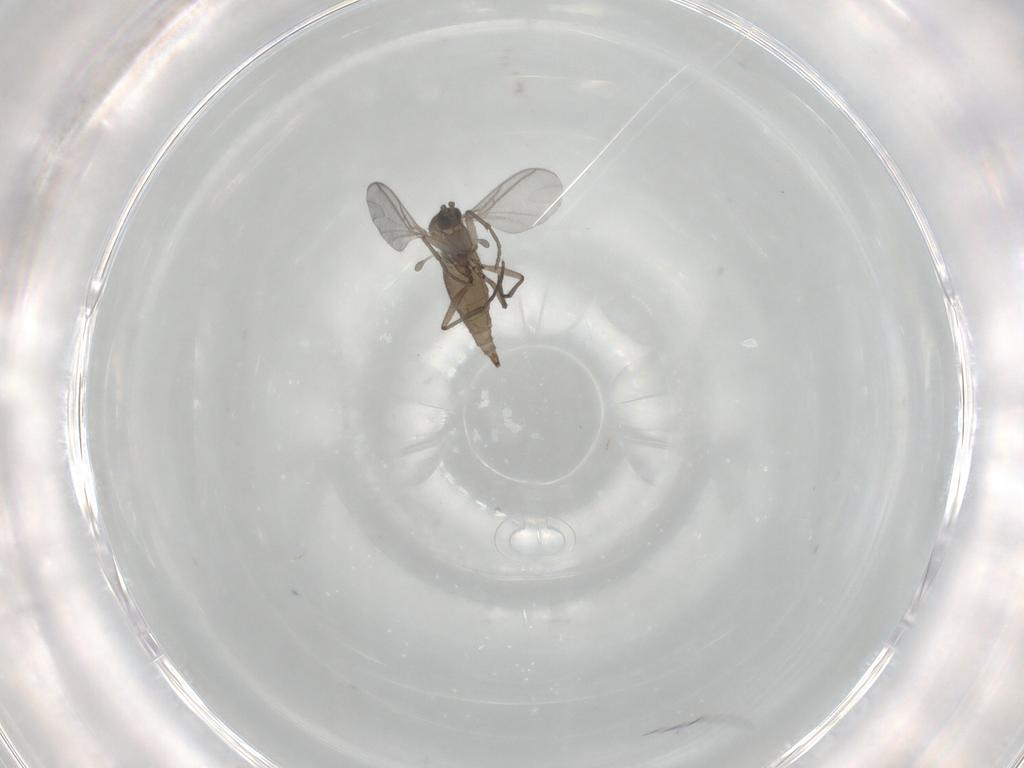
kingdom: Animalia
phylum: Arthropoda
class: Insecta
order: Diptera
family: Sciaridae
